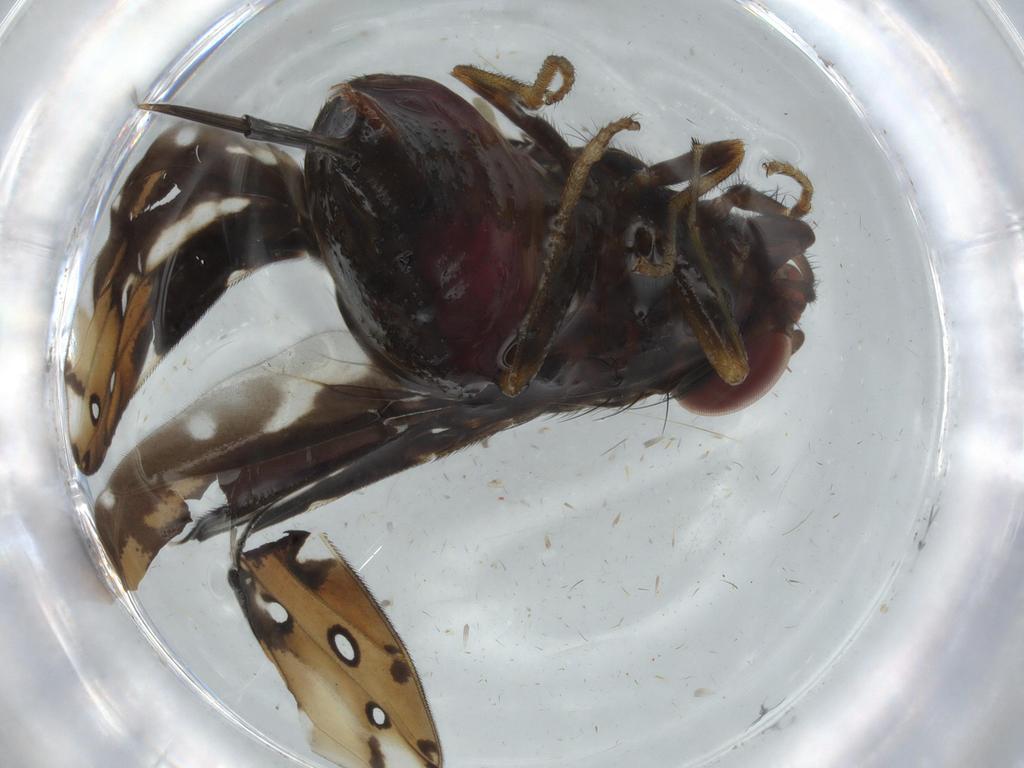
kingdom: Animalia
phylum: Arthropoda
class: Insecta
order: Diptera
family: Ulidiidae
